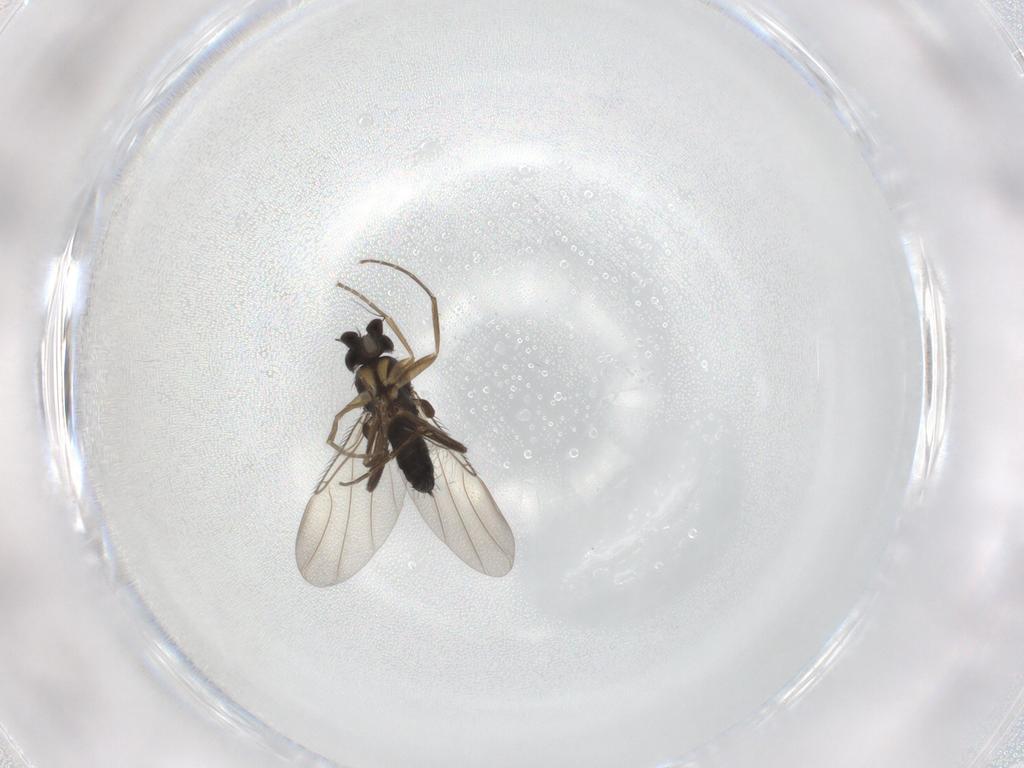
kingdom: Animalia
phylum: Arthropoda
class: Insecta
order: Diptera
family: Phoridae
